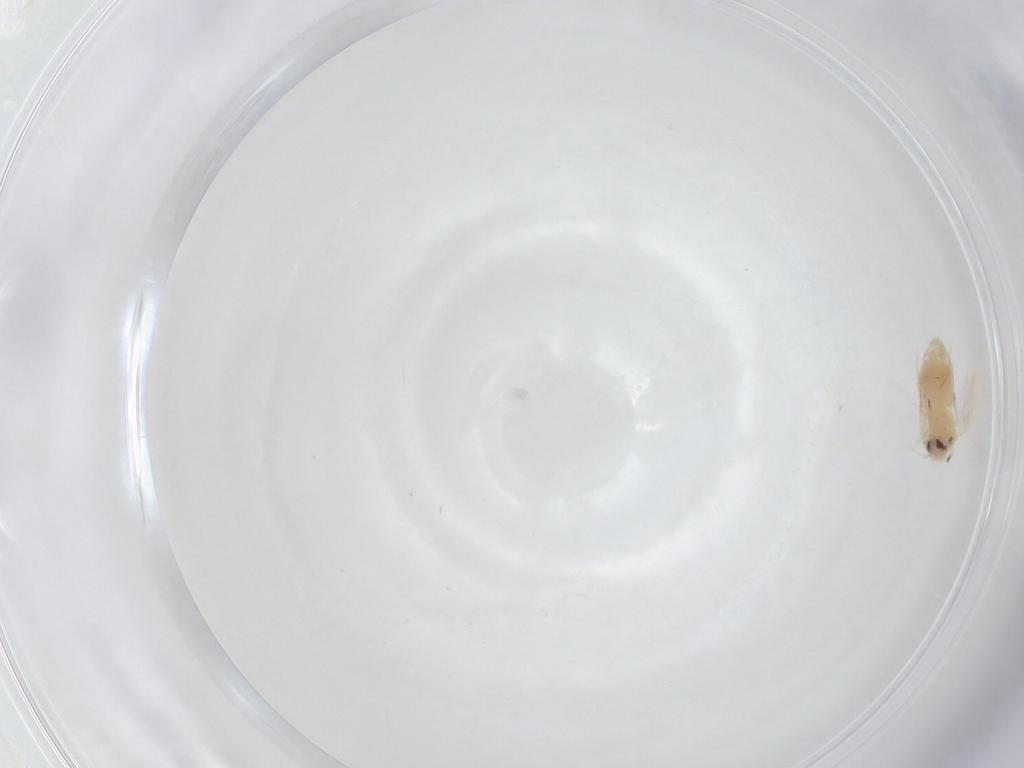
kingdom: Animalia
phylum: Arthropoda
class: Insecta
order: Hemiptera
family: Aleyrodidae
